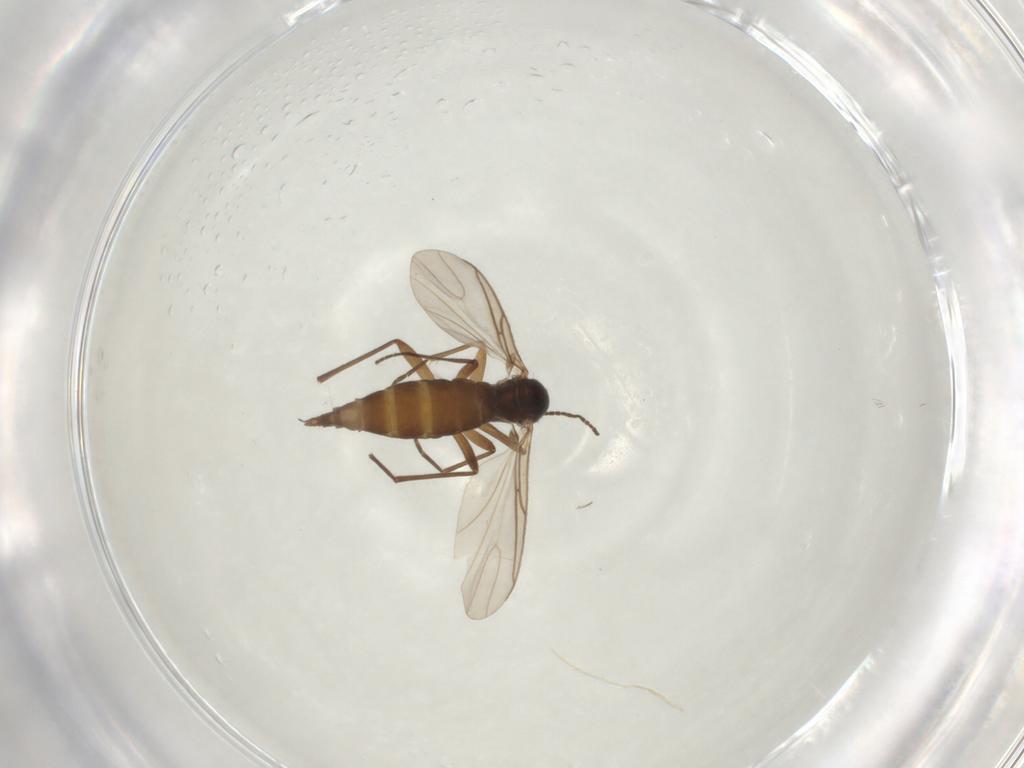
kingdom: Animalia
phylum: Arthropoda
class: Insecta
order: Diptera
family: Sciaridae
